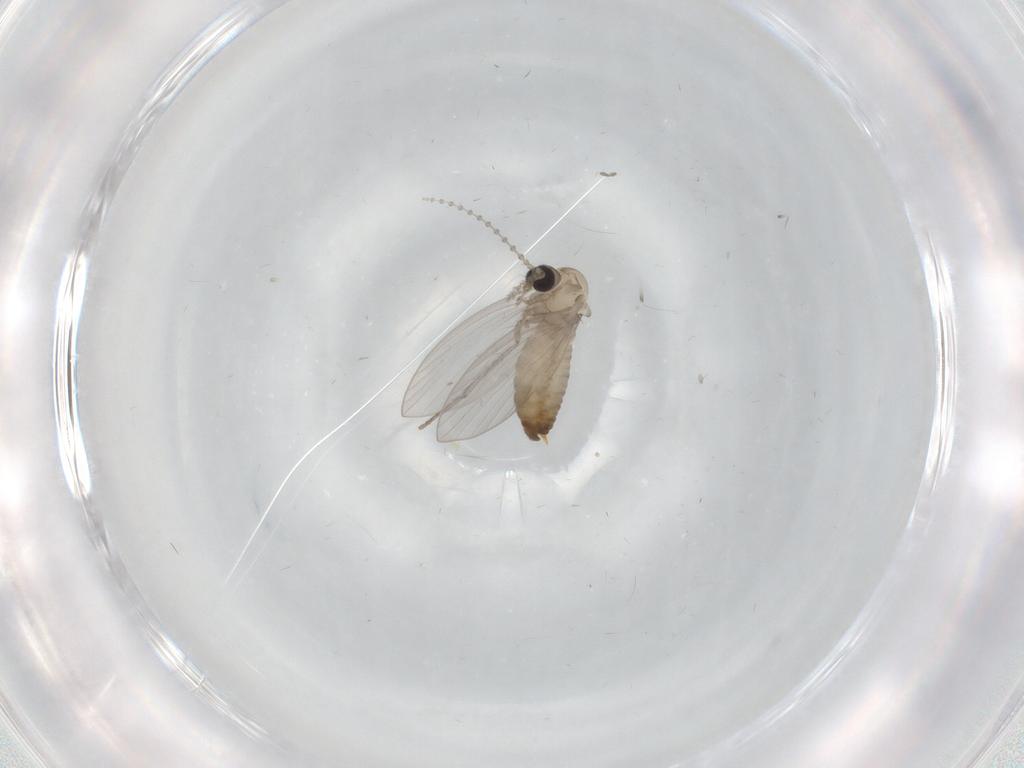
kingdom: Animalia
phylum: Arthropoda
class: Insecta
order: Diptera
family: Psychodidae
